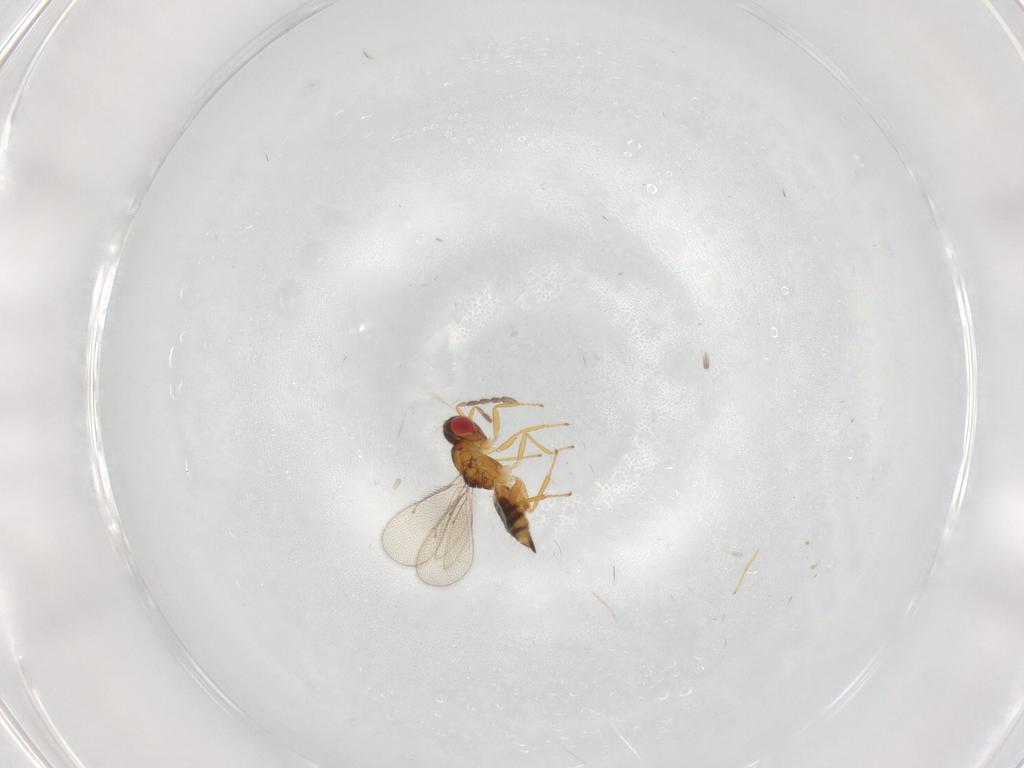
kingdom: Animalia
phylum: Arthropoda
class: Insecta
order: Hymenoptera
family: Eulophidae
